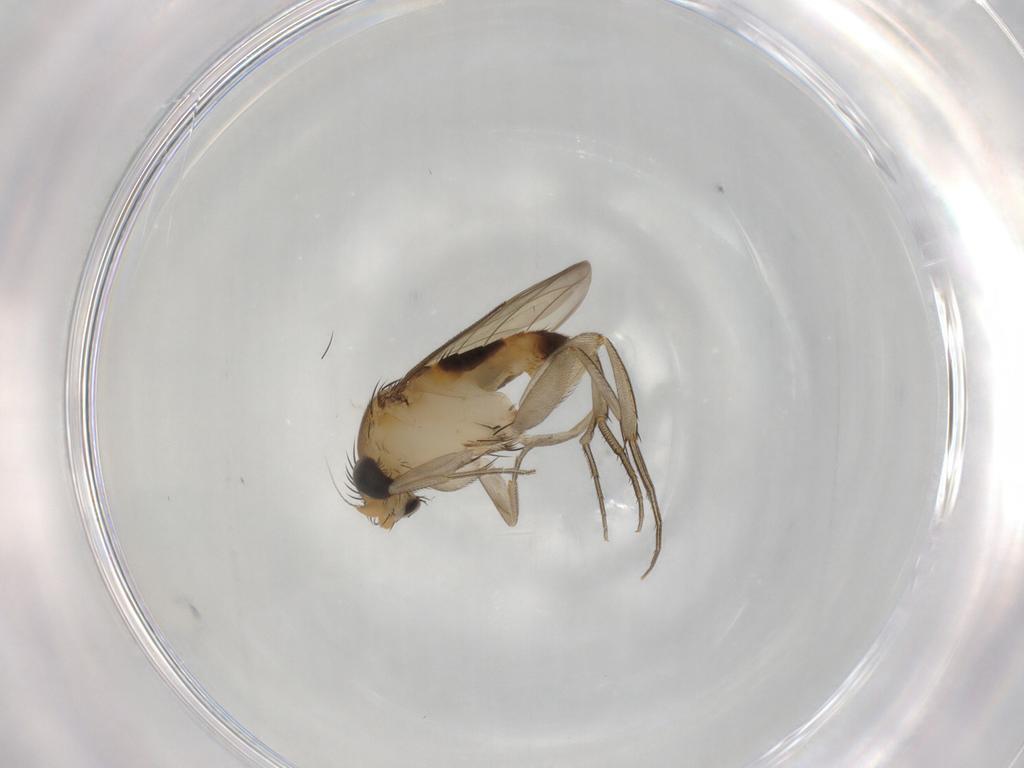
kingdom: Animalia
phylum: Arthropoda
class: Insecta
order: Diptera
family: Phoridae
